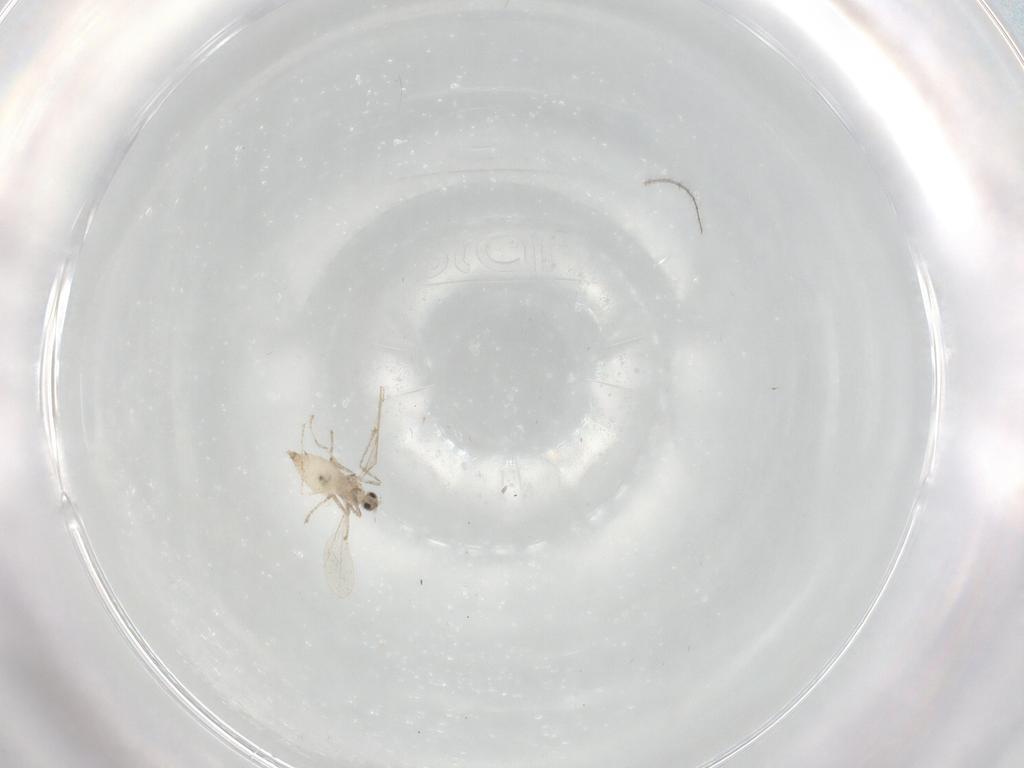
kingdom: Animalia
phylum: Arthropoda
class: Insecta
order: Diptera
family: Cecidomyiidae
